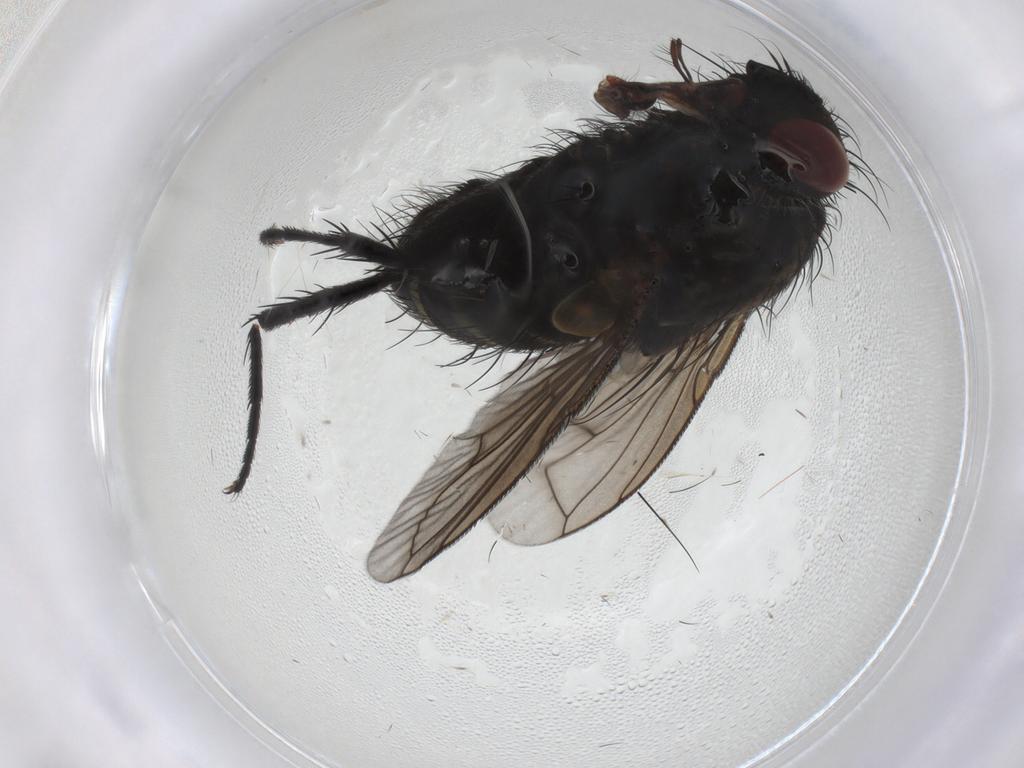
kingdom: Animalia
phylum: Arthropoda
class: Insecta
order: Diptera
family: Tachinidae
